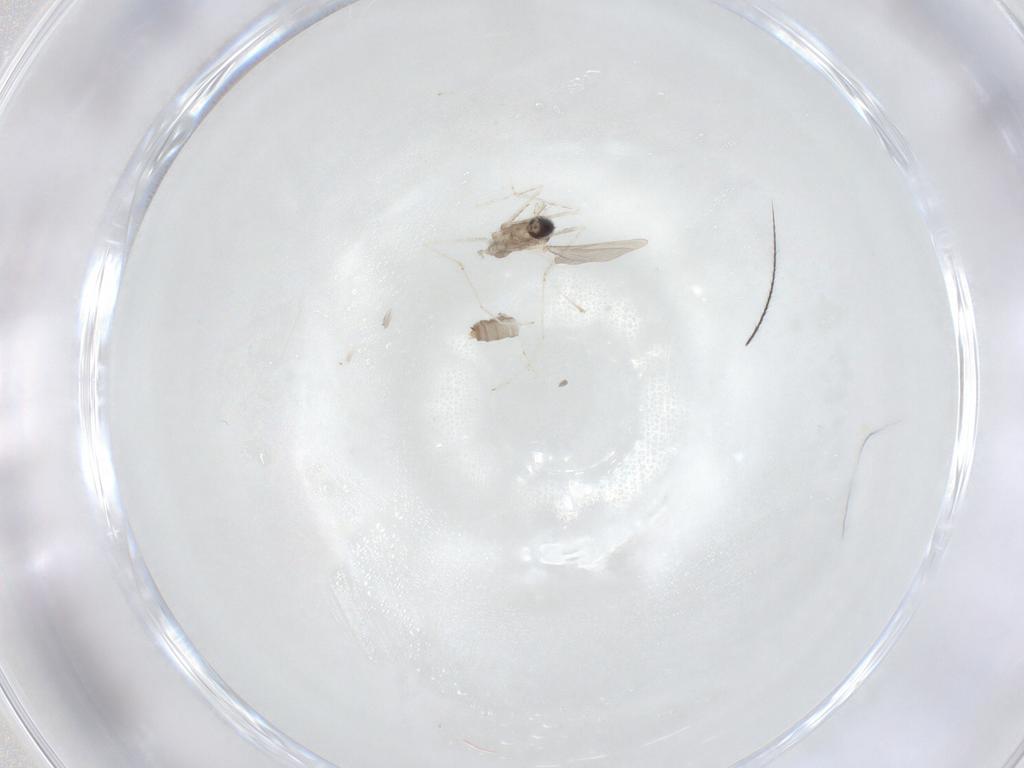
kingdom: Animalia
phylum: Arthropoda
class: Insecta
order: Diptera
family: Cecidomyiidae
